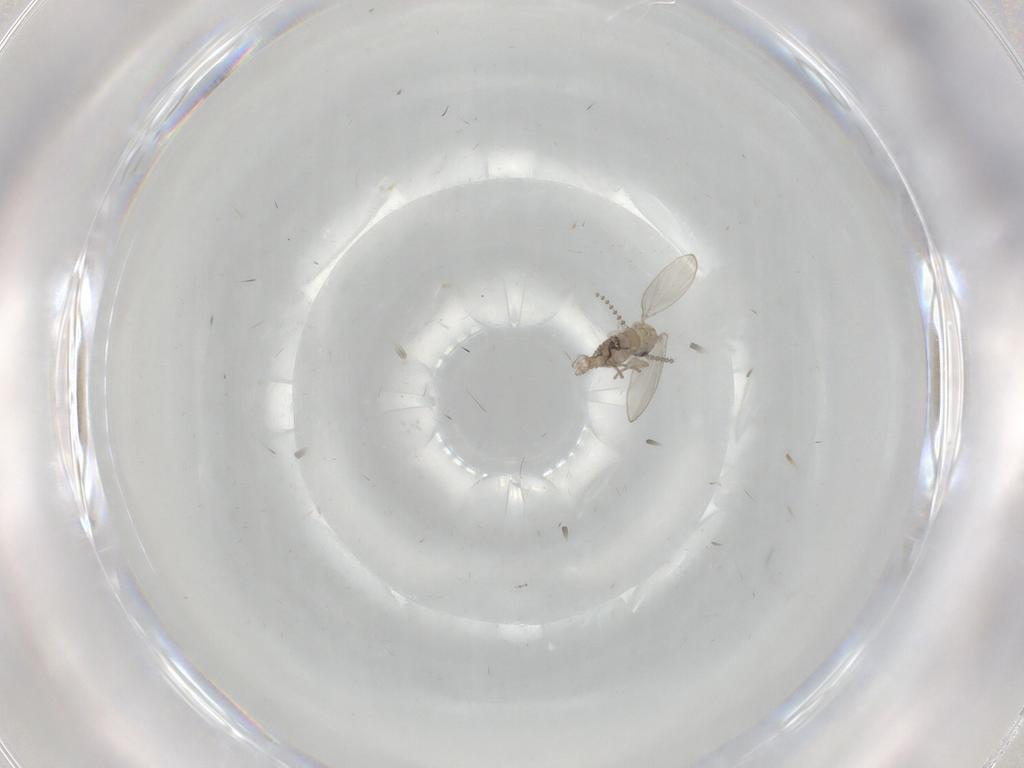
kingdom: Animalia
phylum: Arthropoda
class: Insecta
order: Diptera
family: Psychodidae
